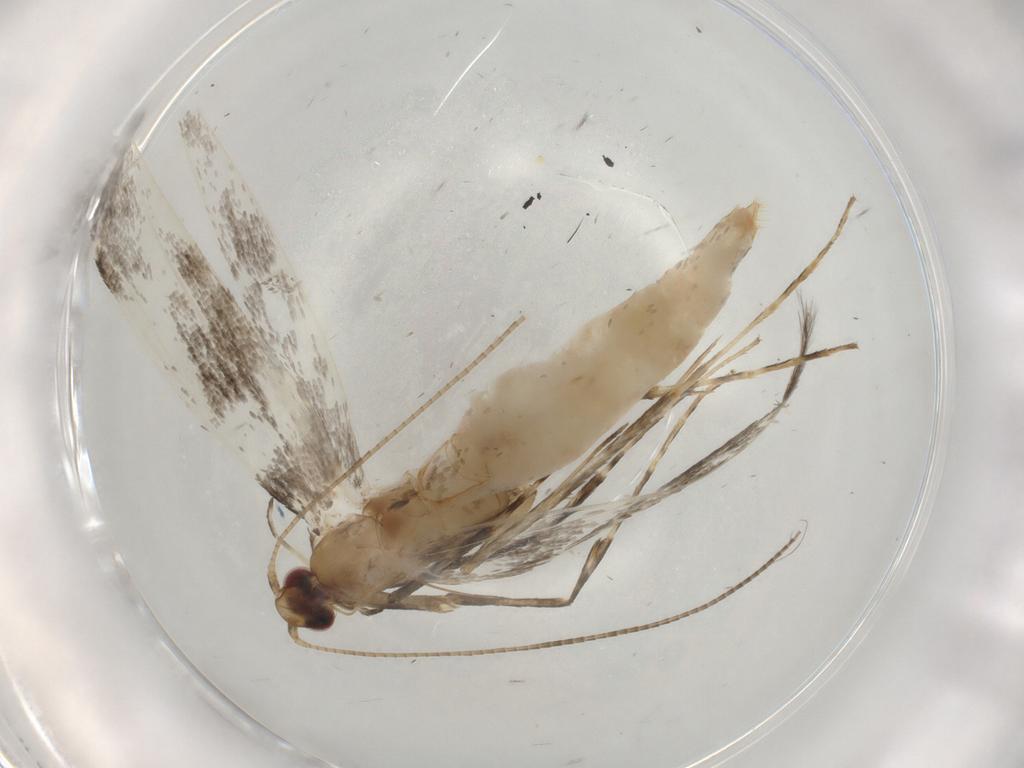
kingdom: Animalia
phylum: Arthropoda
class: Insecta
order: Lepidoptera
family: Gracillariidae
